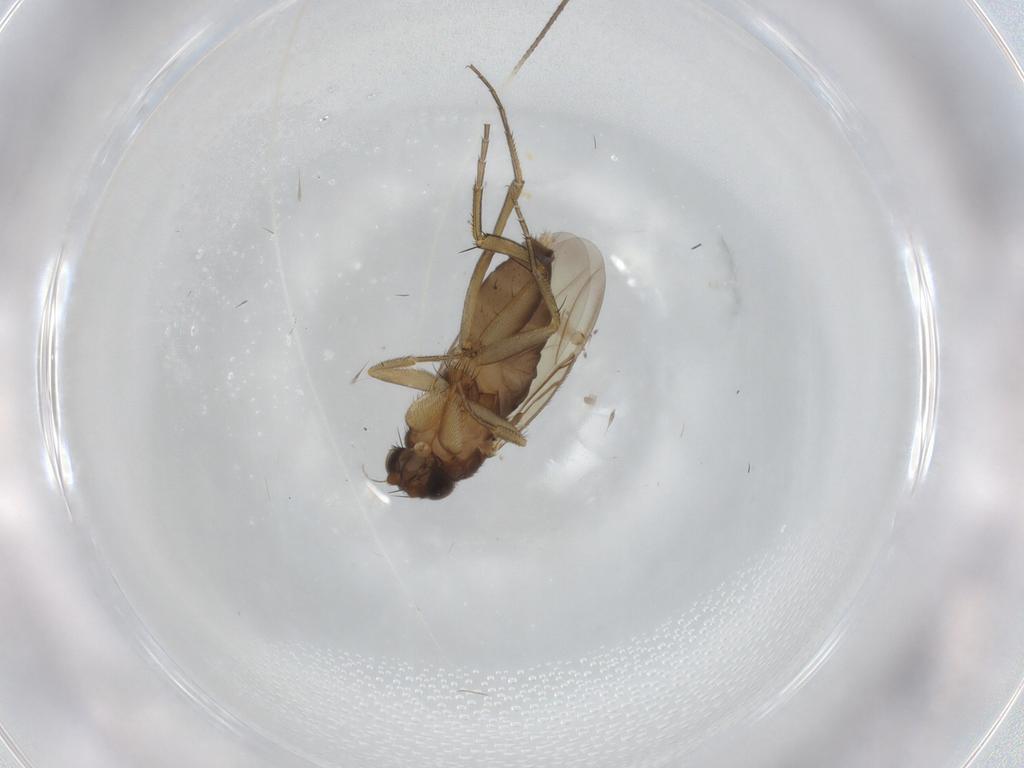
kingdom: Animalia
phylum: Arthropoda
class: Insecta
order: Diptera
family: Phoridae
